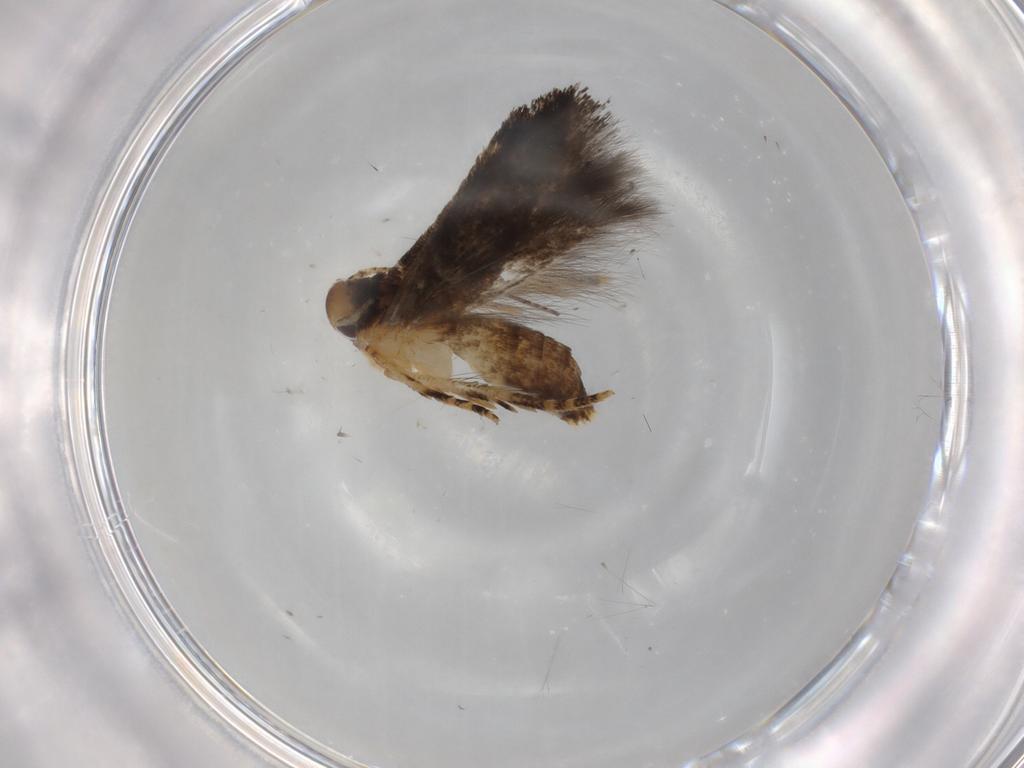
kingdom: Animalia
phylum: Arthropoda
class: Insecta
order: Lepidoptera
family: Momphidae
